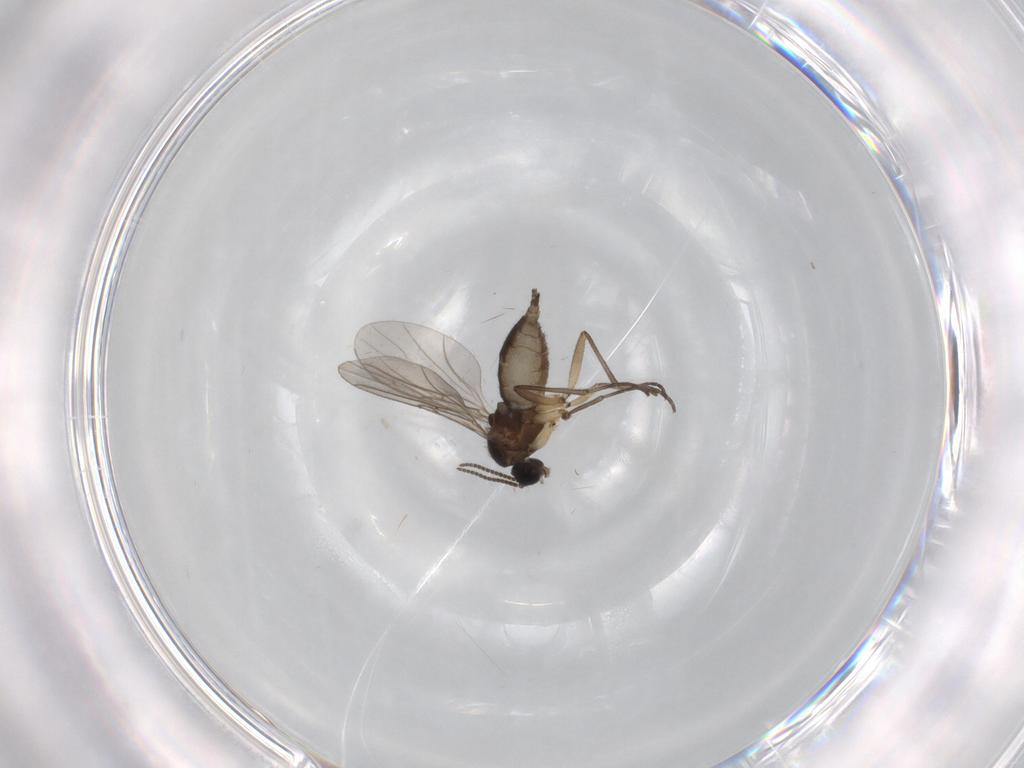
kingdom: Animalia
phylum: Arthropoda
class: Insecta
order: Diptera
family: Sciaridae
